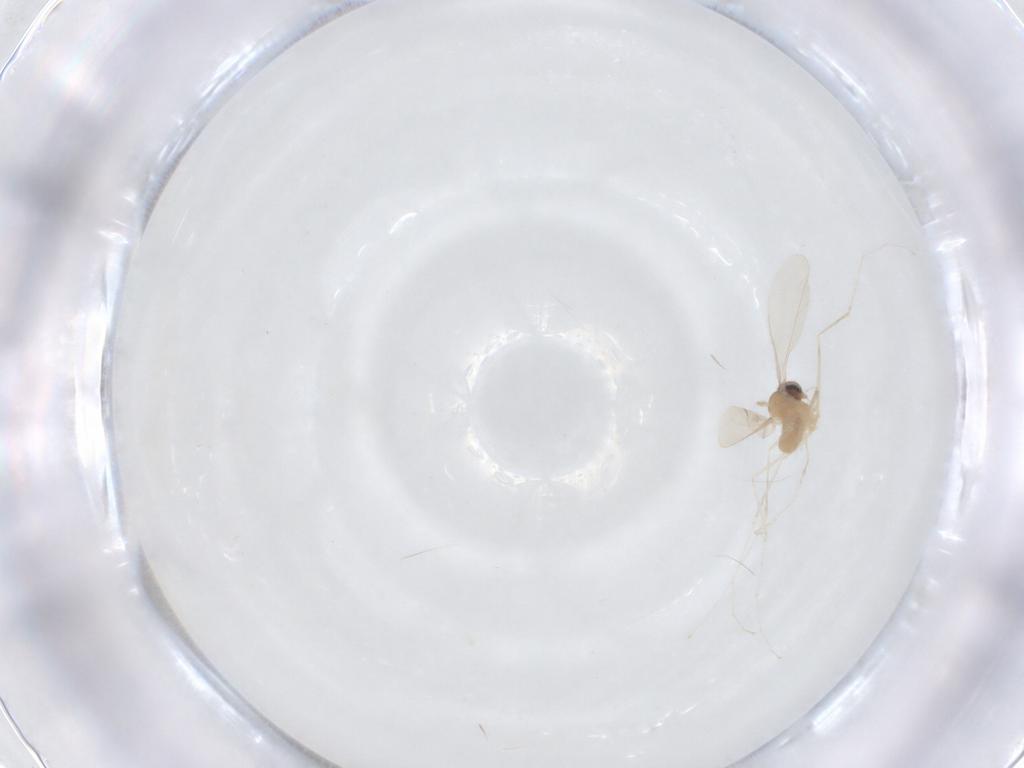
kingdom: Animalia
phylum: Arthropoda
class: Insecta
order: Diptera
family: Cecidomyiidae
